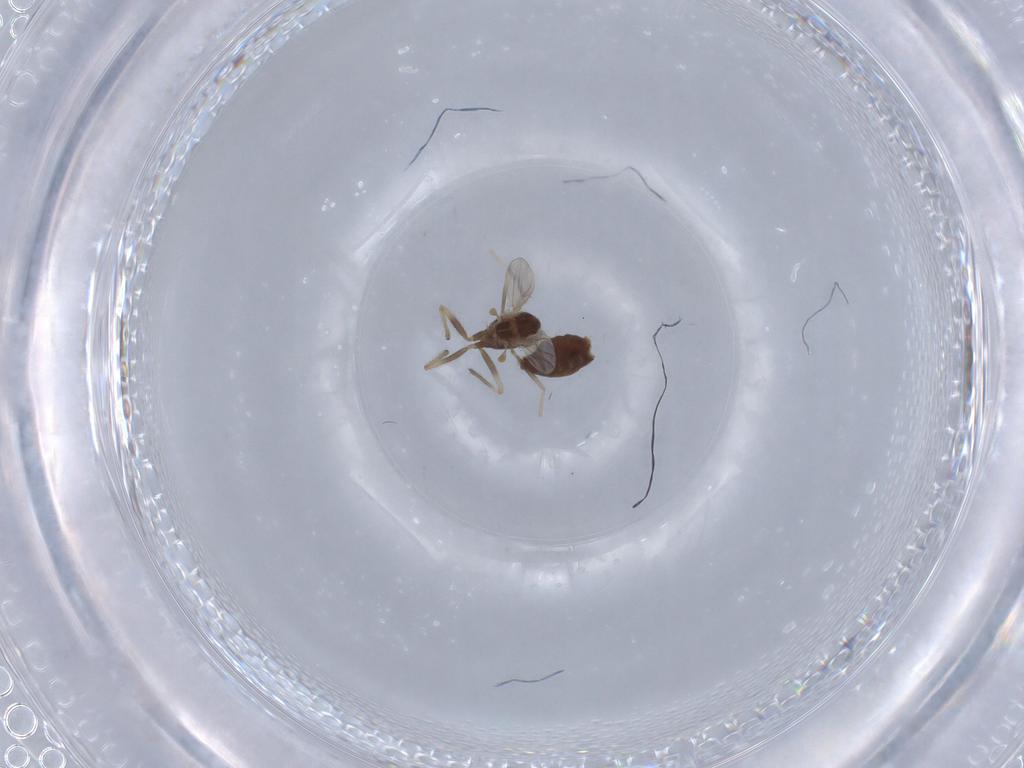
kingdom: Animalia
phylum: Arthropoda
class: Insecta
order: Diptera
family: Chironomidae
